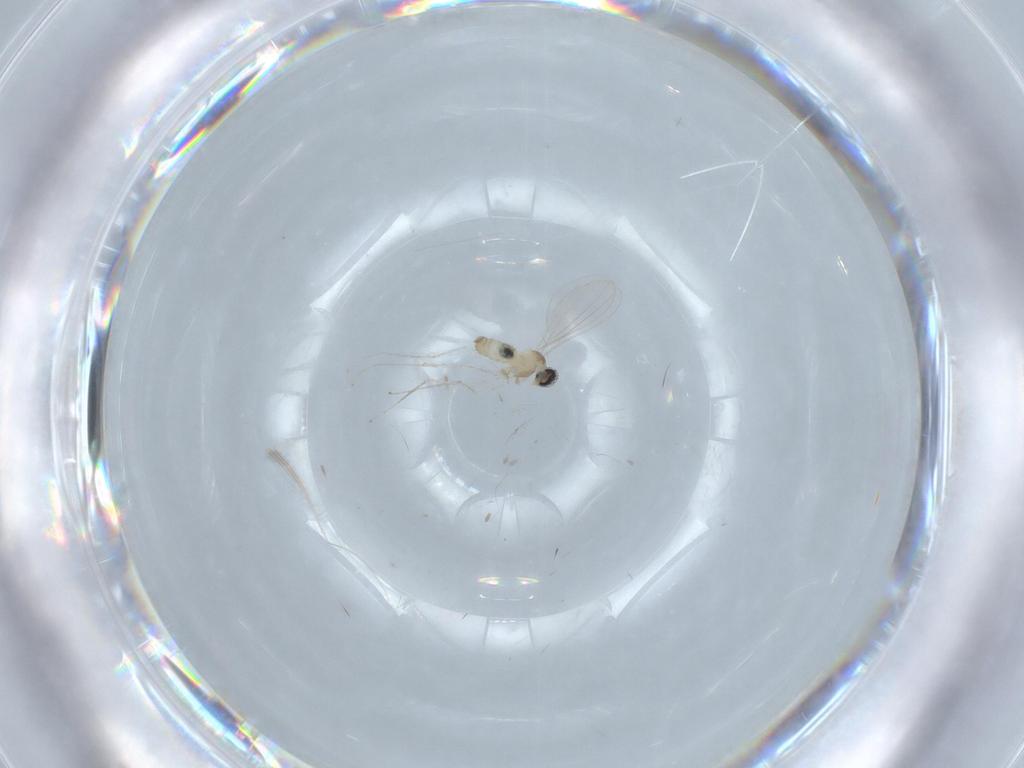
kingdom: Animalia
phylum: Arthropoda
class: Insecta
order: Diptera
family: Cecidomyiidae
